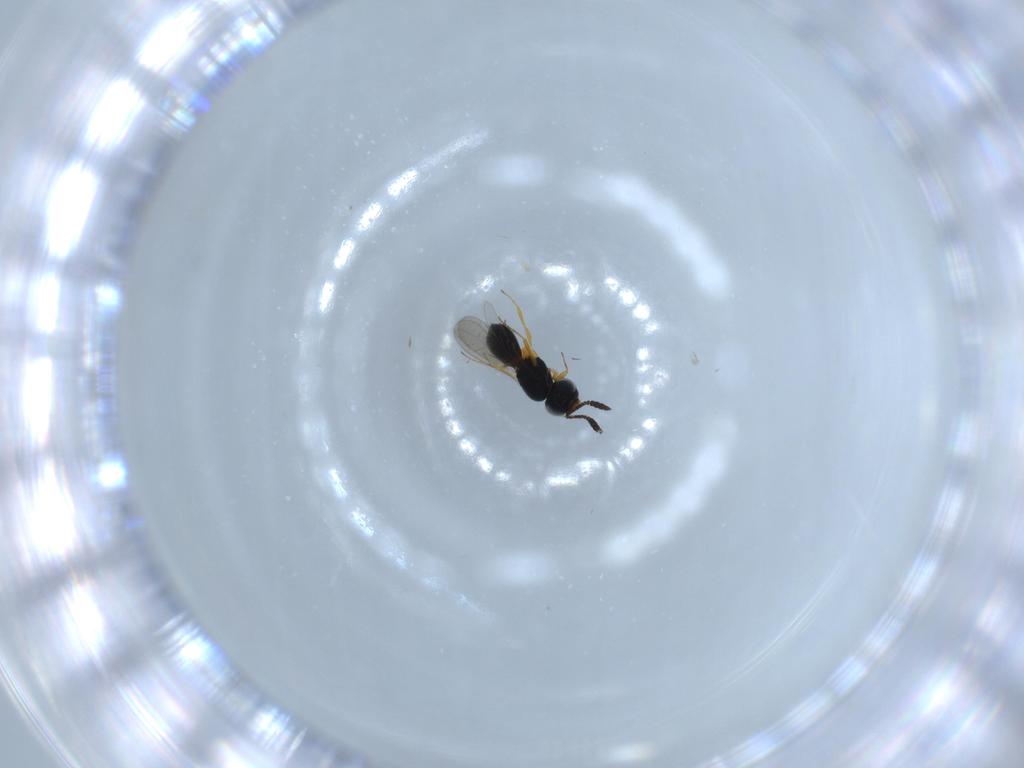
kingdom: Animalia
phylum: Arthropoda
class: Insecta
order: Hymenoptera
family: Scelionidae
